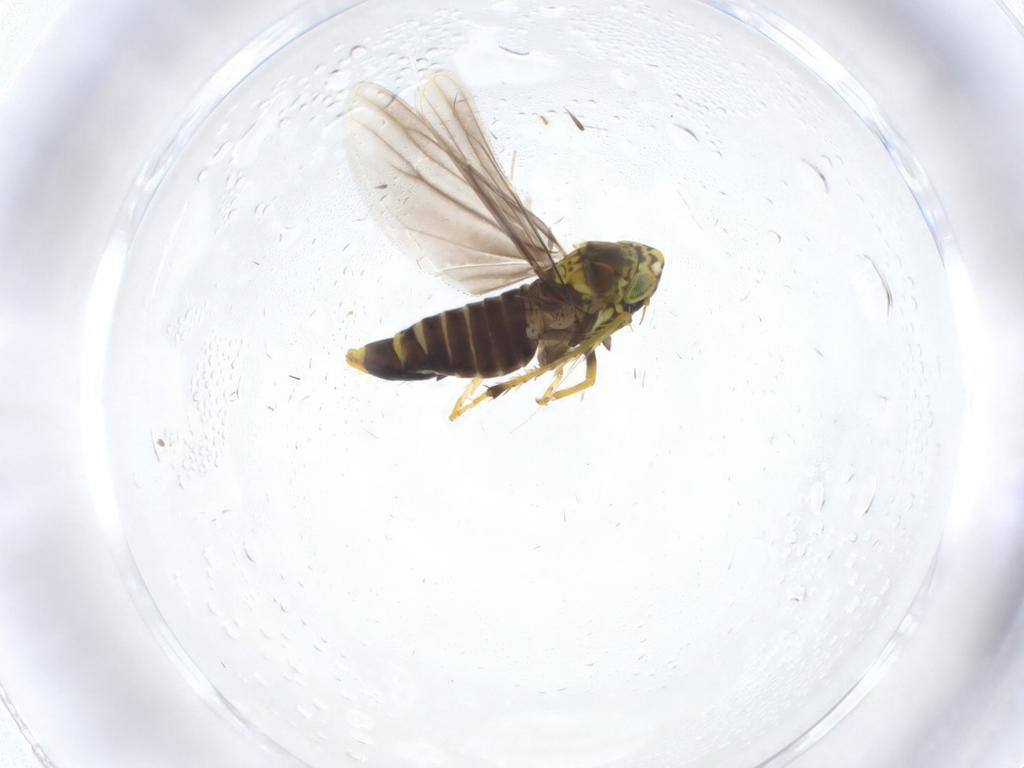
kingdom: Animalia
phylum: Arthropoda
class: Insecta
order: Hemiptera
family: Cicadellidae
